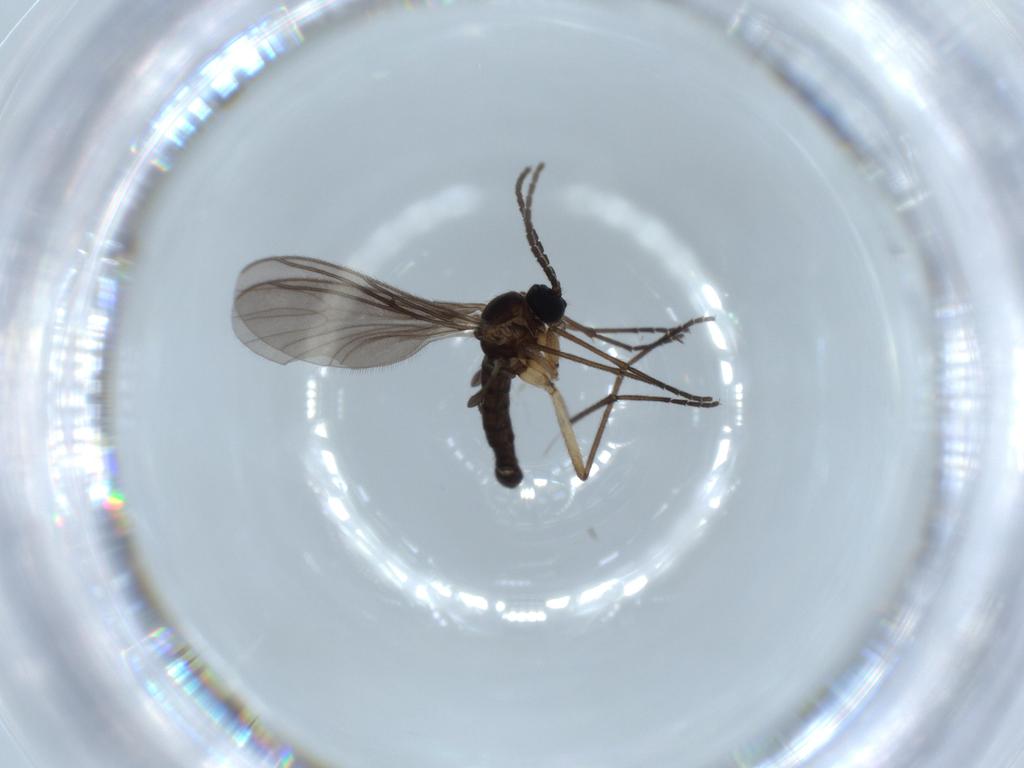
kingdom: Animalia
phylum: Arthropoda
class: Insecta
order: Diptera
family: Sciaridae
